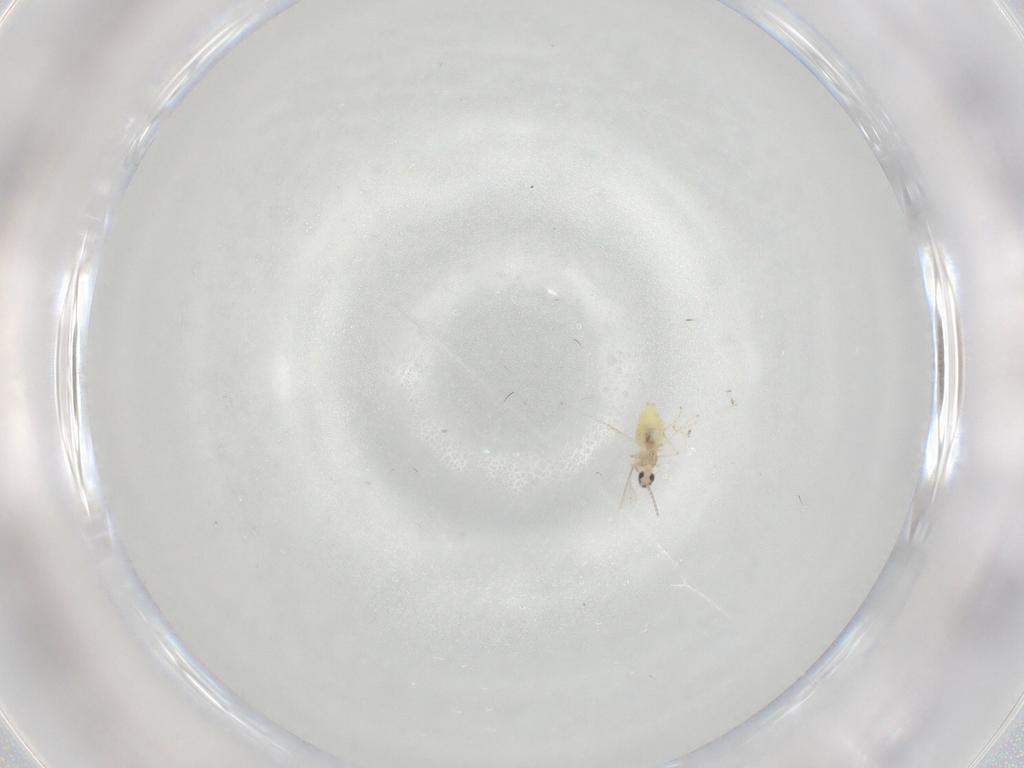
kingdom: Animalia
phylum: Arthropoda
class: Insecta
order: Diptera
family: Cecidomyiidae
